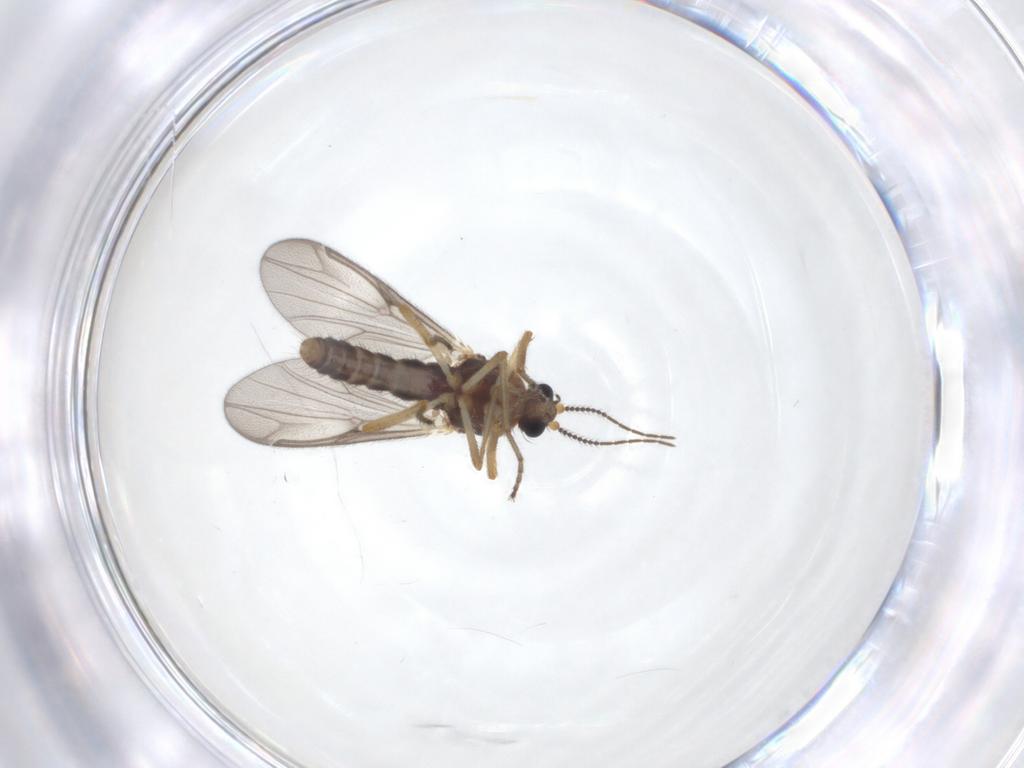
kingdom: Animalia
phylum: Arthropoda
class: Insecta
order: Diptera
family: Ceratopogonidae
